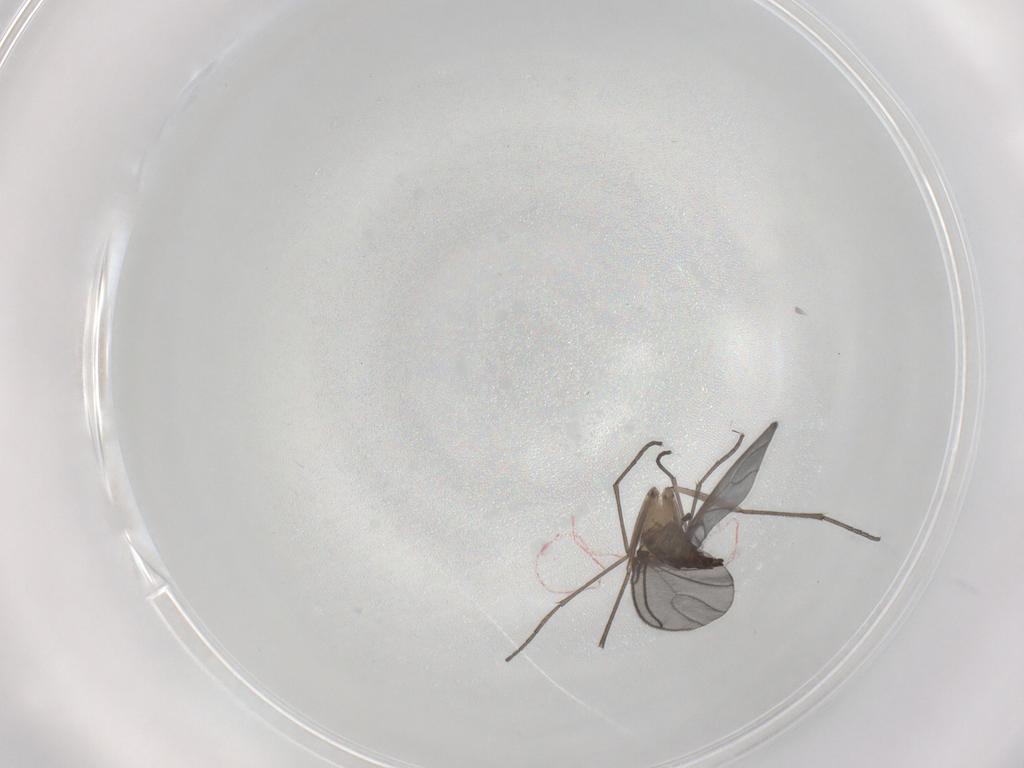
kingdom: Animalia
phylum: Arthropoda
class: Insecta
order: Diptera
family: Sciaridae
